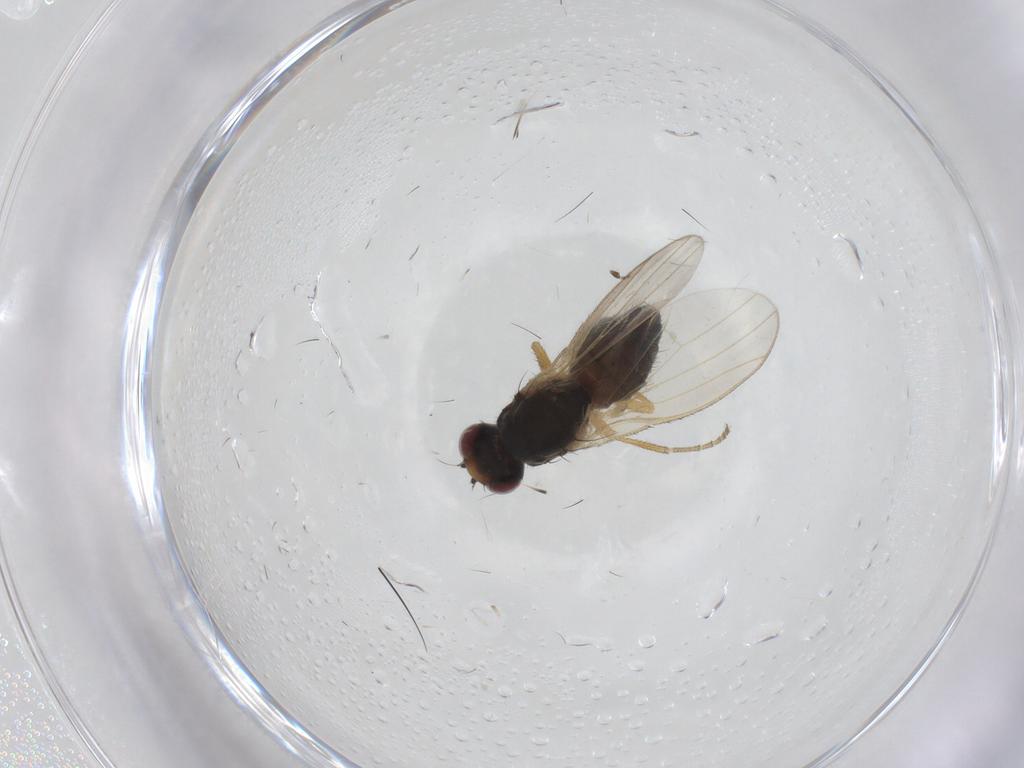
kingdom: Animalia
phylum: Arthropoda
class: Insecta
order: Diptera
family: Heleomyzidae
